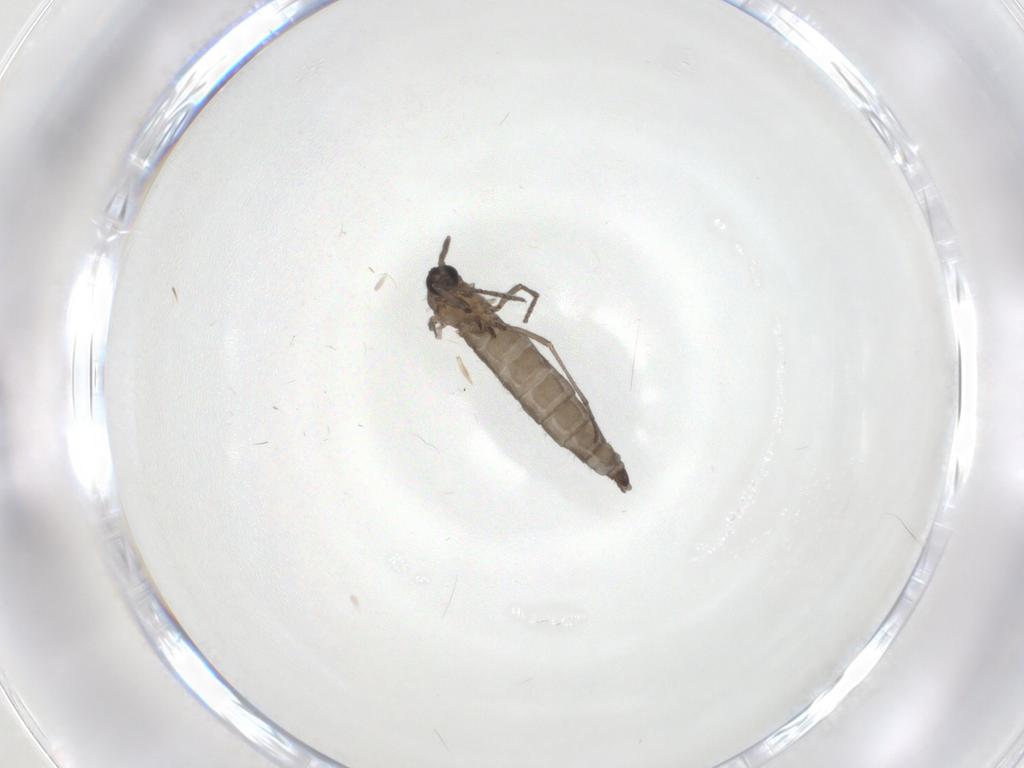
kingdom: Animalia
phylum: Arthropoda
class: Insecta
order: Diptera
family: Sciaridae
